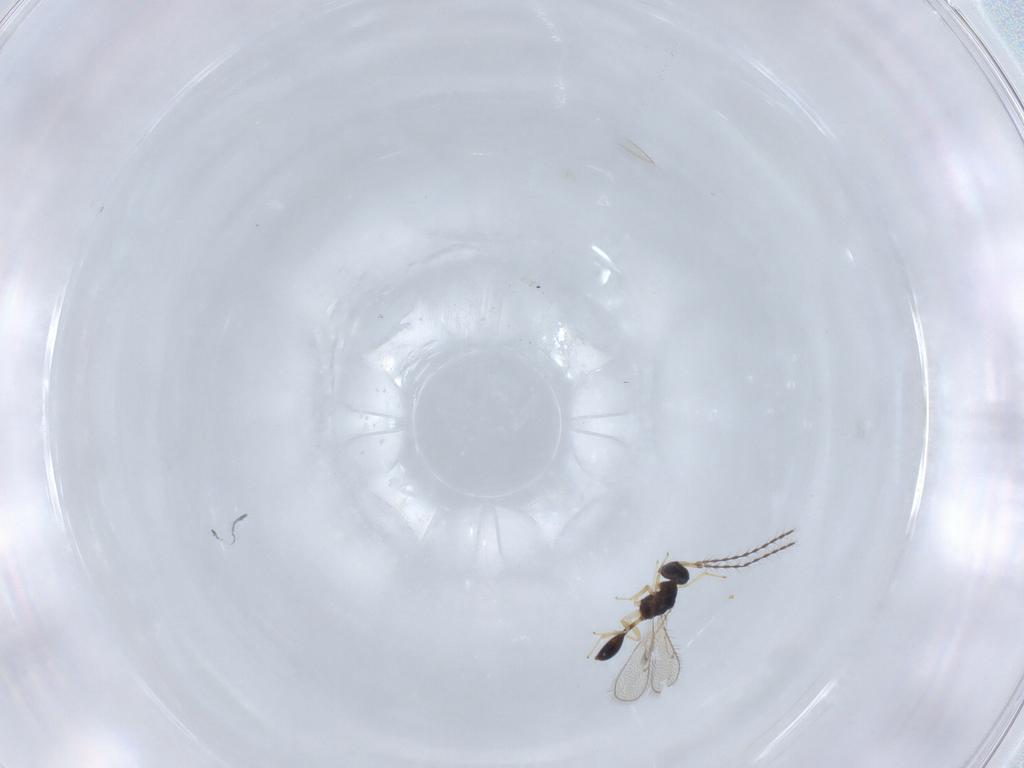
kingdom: Animalia
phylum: Arthropoda
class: Insecta
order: Hymenoptera
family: Diparidae
